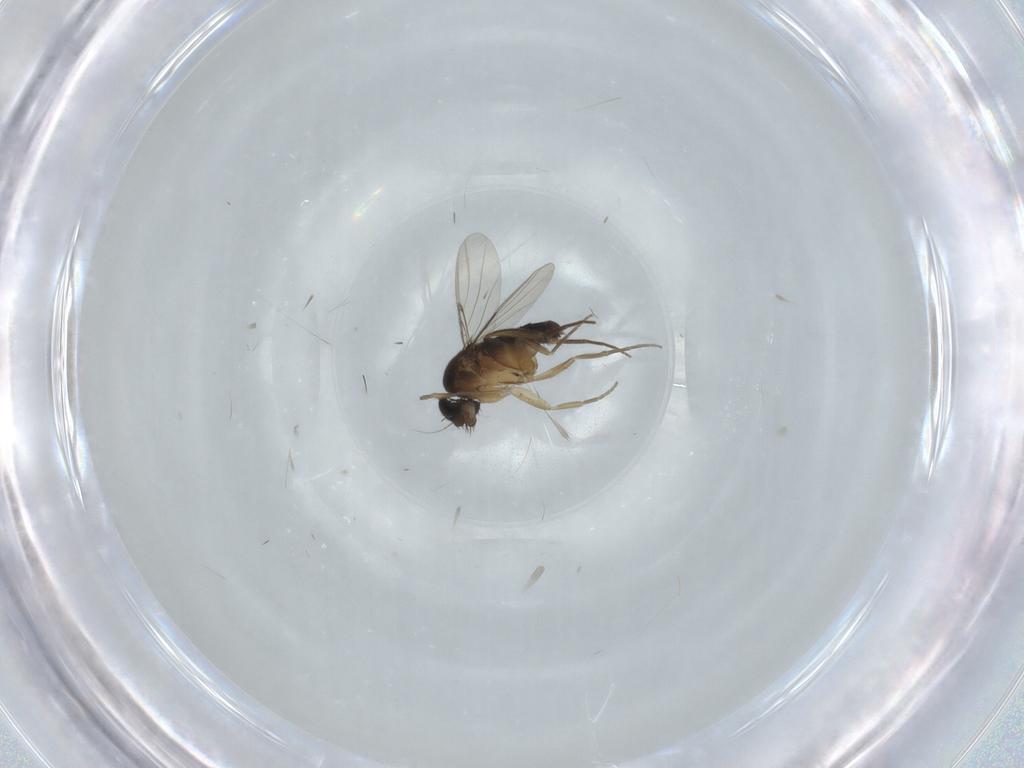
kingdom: Animalia
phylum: Arthropoda
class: Insecta
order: Diptera
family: Phoridae
